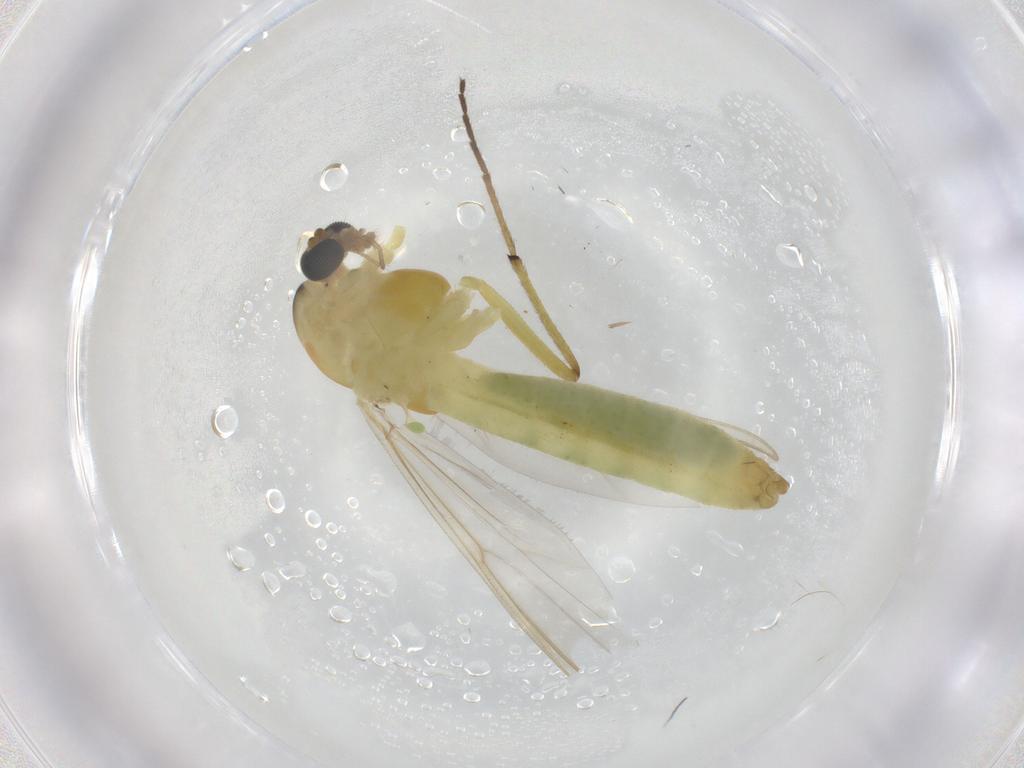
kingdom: Animalia
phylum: Arthropoda
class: Insecta
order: Diptera
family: Chironomidae
